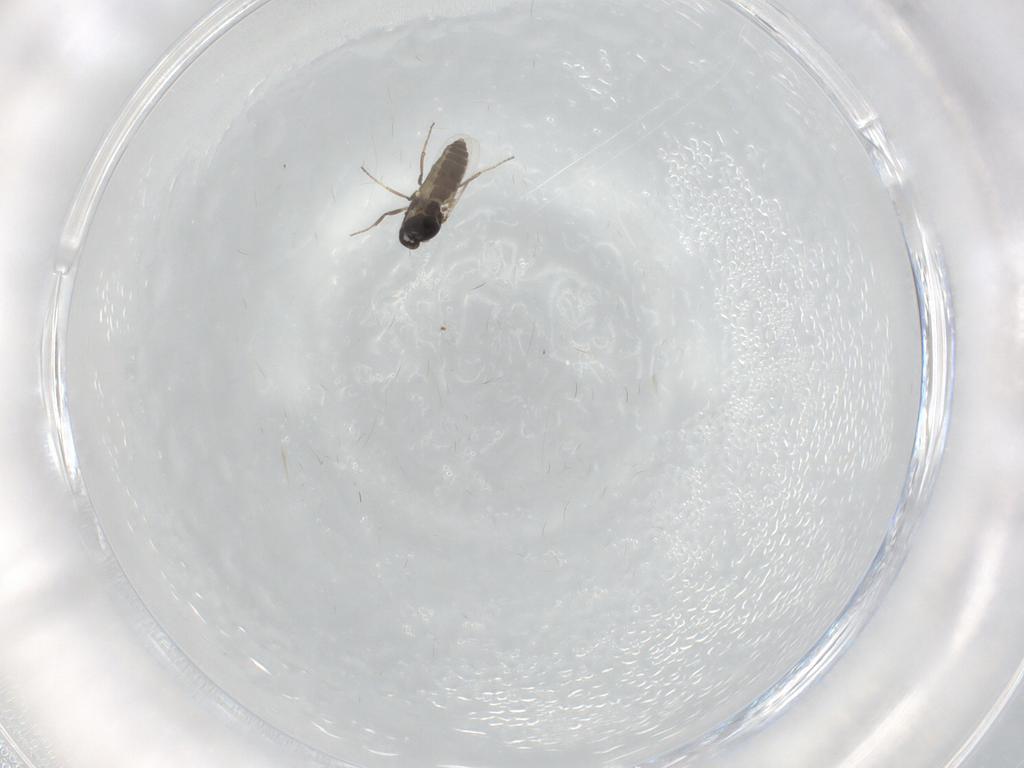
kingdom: Animalia
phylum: Arthropoda
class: Insecta
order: Diptera
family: Ceratopogonidae
